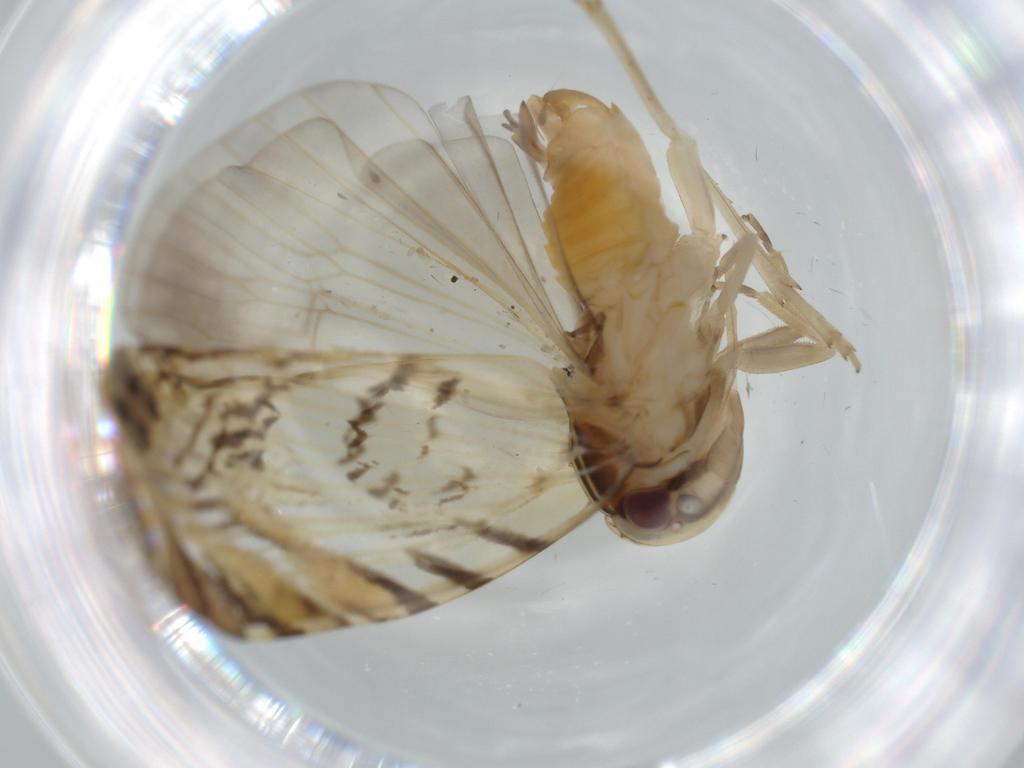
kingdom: Animalia
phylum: Arthropoda
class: Insecta
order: Hemiptera
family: Cixiidae
